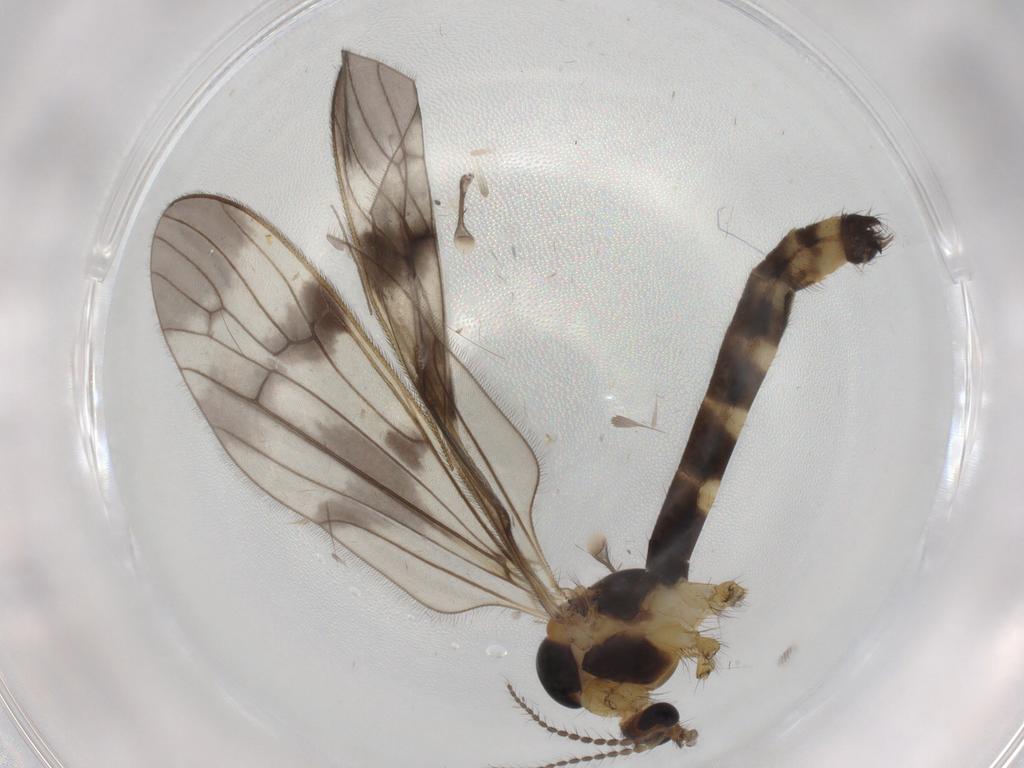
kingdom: Animalia
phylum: Arthropoda
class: Insecta
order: Diptera
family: Limoniidae
